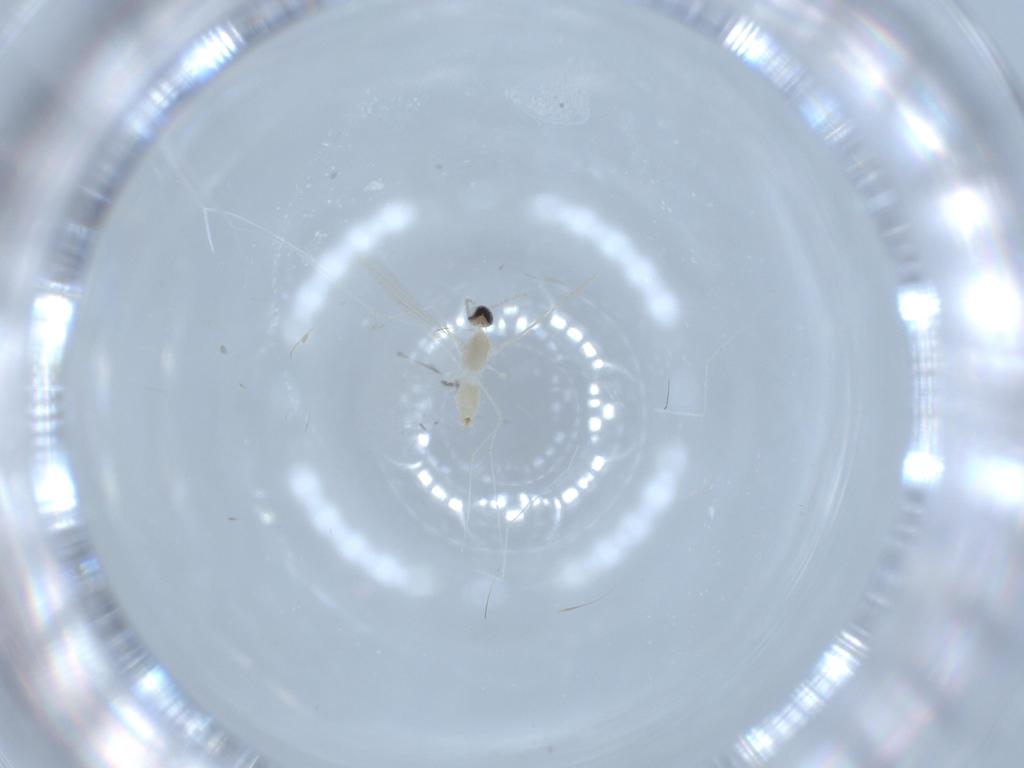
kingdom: Animalia
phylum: Arthropoda
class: Insecta
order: Diptera
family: Cecidomyiidae
